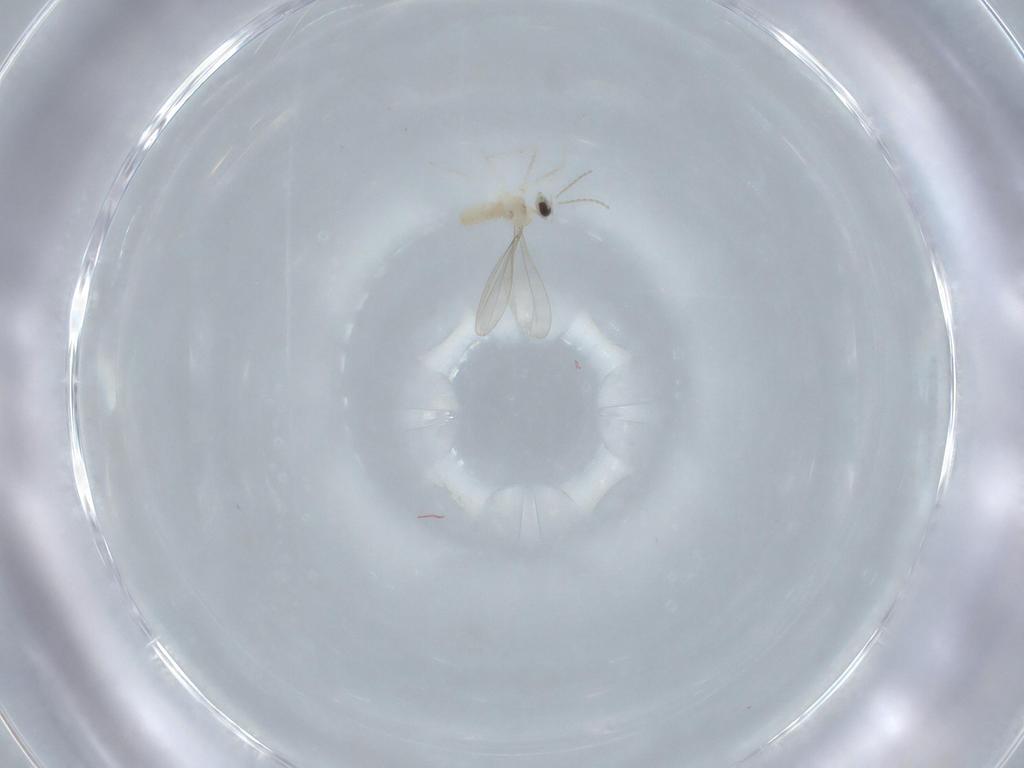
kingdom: Animalia
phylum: Arthropoda
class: Insecta
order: Diptera
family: Cecidomyiidae
